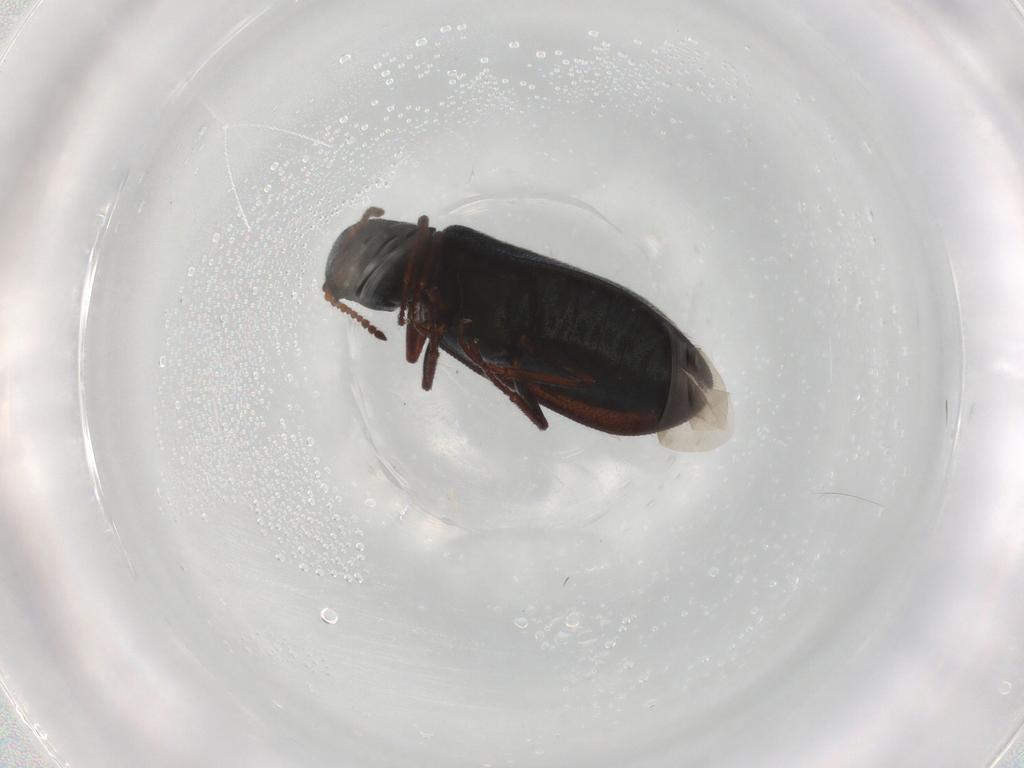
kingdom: Animalia
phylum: Arthropoda
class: Insecta
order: Coleoptera
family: Melyridae
